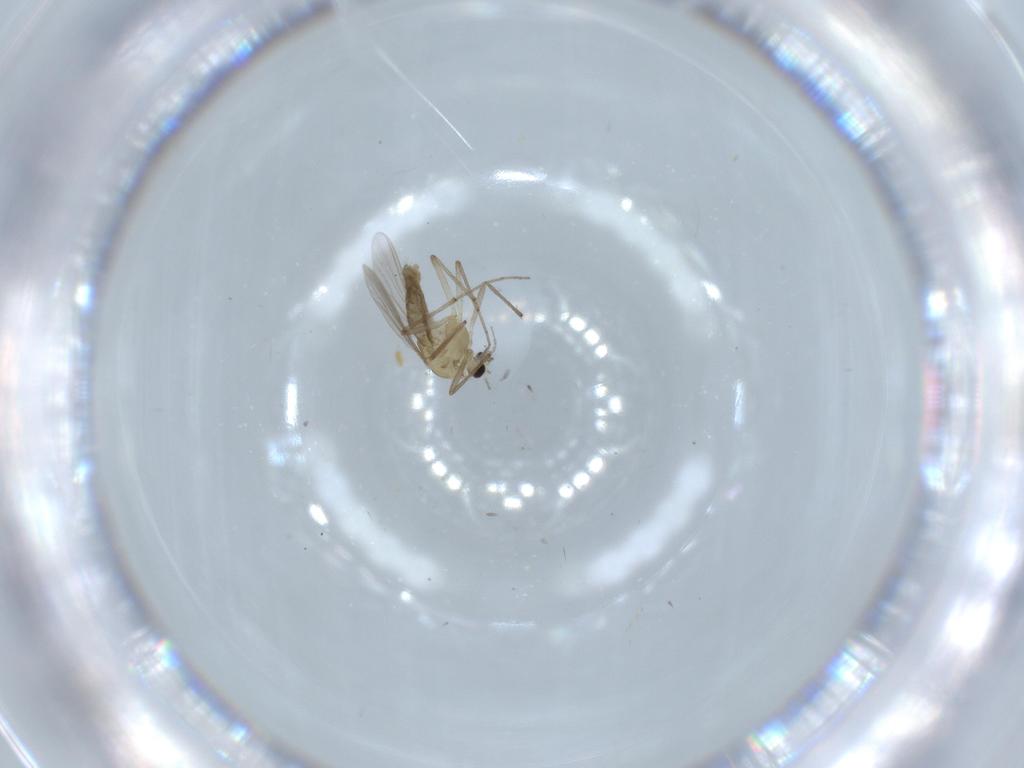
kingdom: Animalia
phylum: Arthropoda
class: Insecta
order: Diptera
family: Chironomidae
